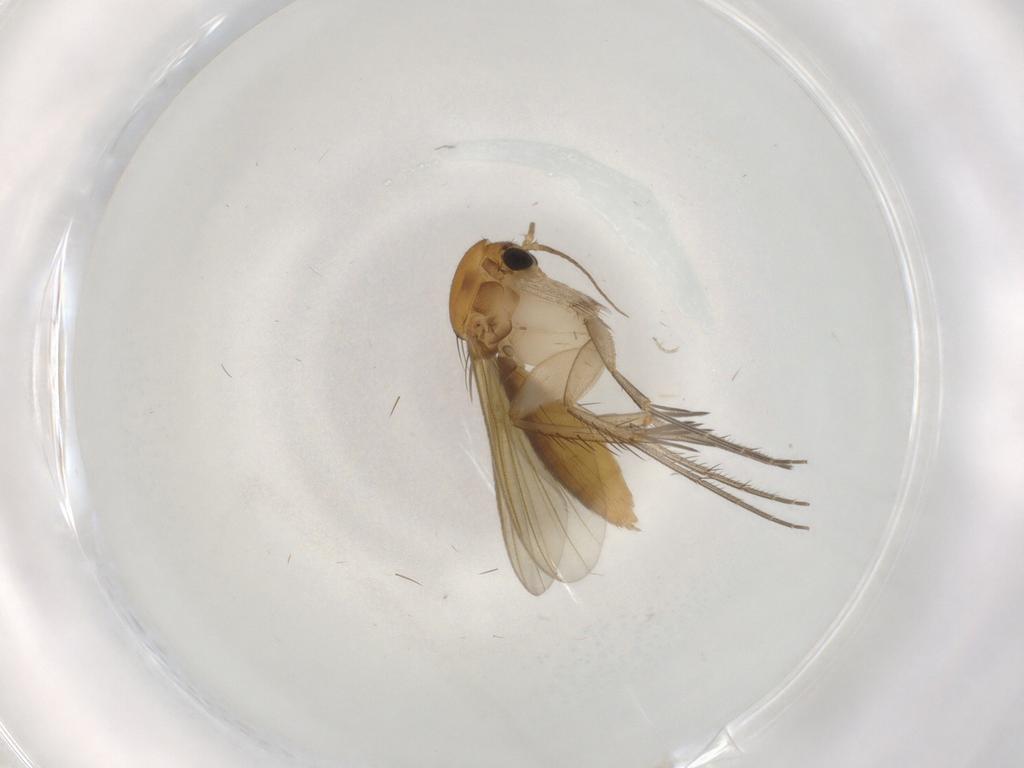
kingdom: Animalia
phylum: Arthropoda
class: Insecta
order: Diptera
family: Mycetophilidae
